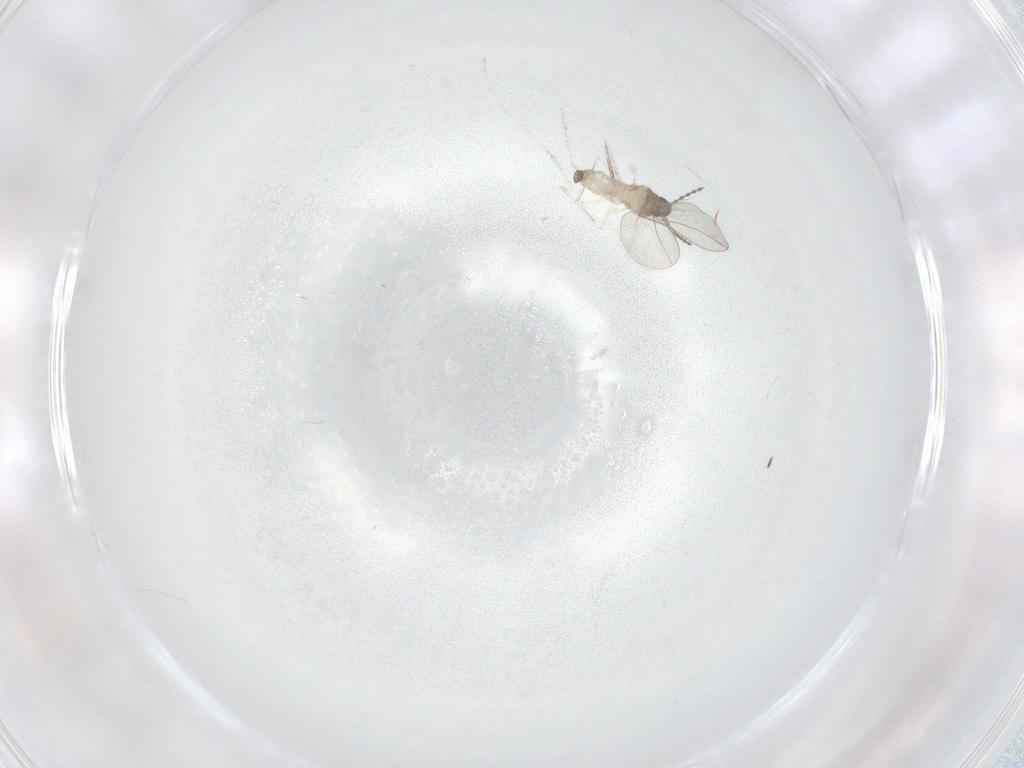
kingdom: Animalia
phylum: Arthropoda
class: Insecta
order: Diptera
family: Cecidomyiidae
